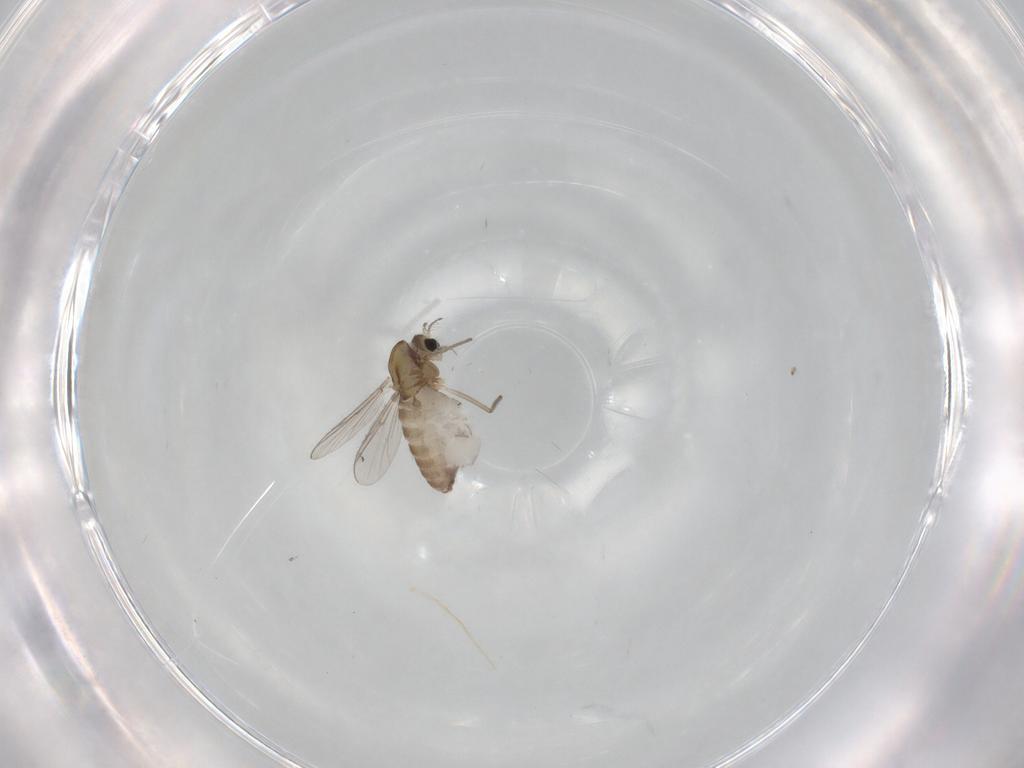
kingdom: Animalia
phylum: Arthropoda
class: Insecta
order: Diptera
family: Chironomidae
